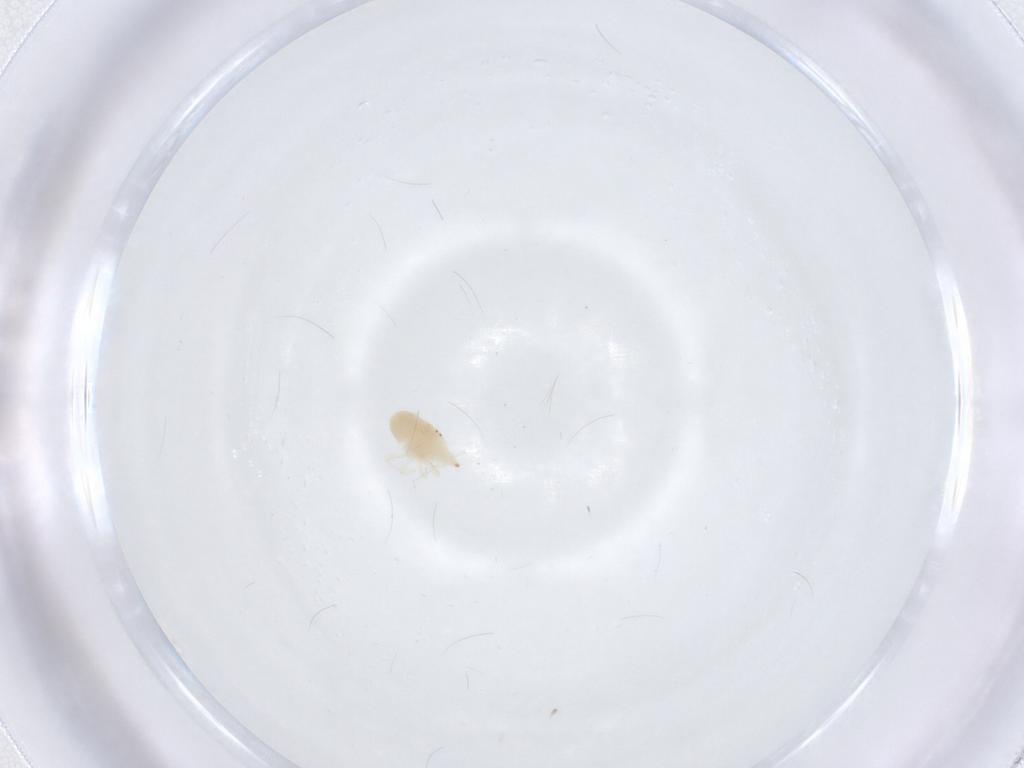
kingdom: Animalia
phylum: Arthropoda
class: Arachnida
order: Trombidiformes
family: Bdellidae
